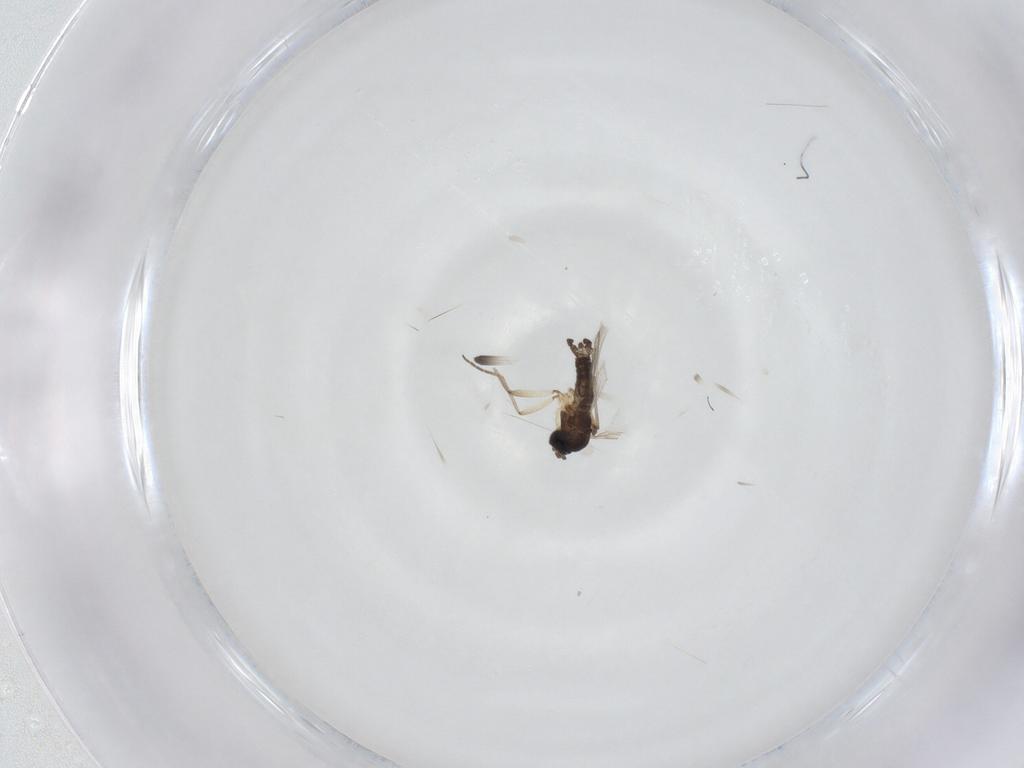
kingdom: Animalia
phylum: Arthropoda
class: Insecta
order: Diptera
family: Sciaridae
